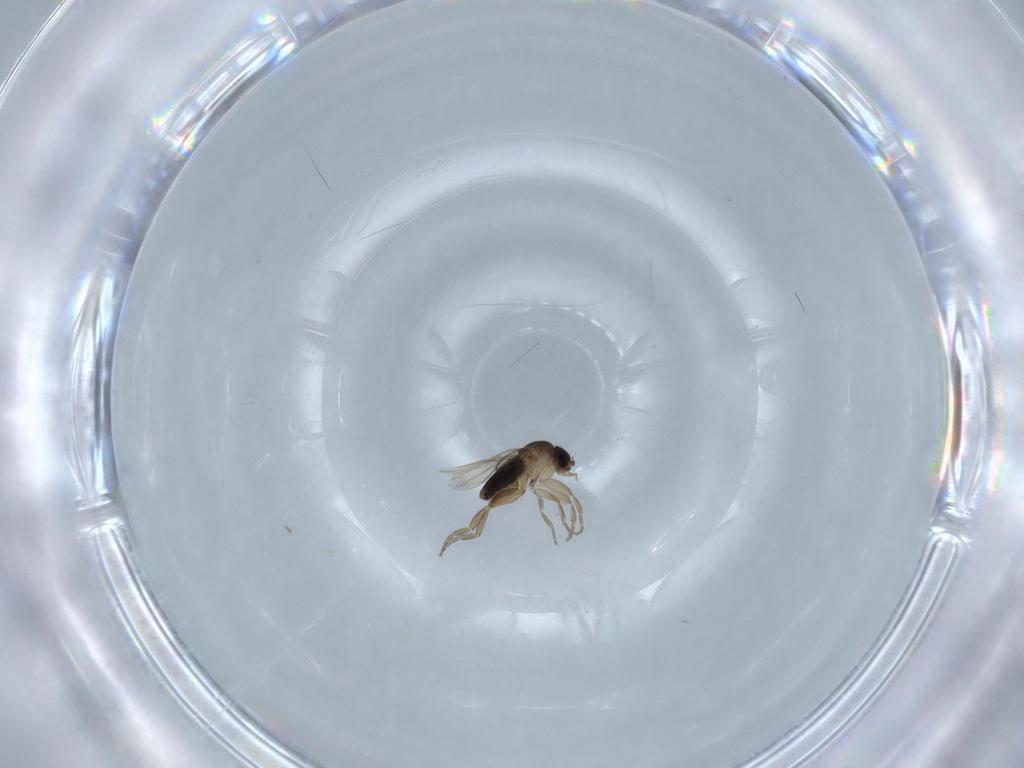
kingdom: Animalia
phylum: Arthropoda
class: Insecta
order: Diptera
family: Phoridae
